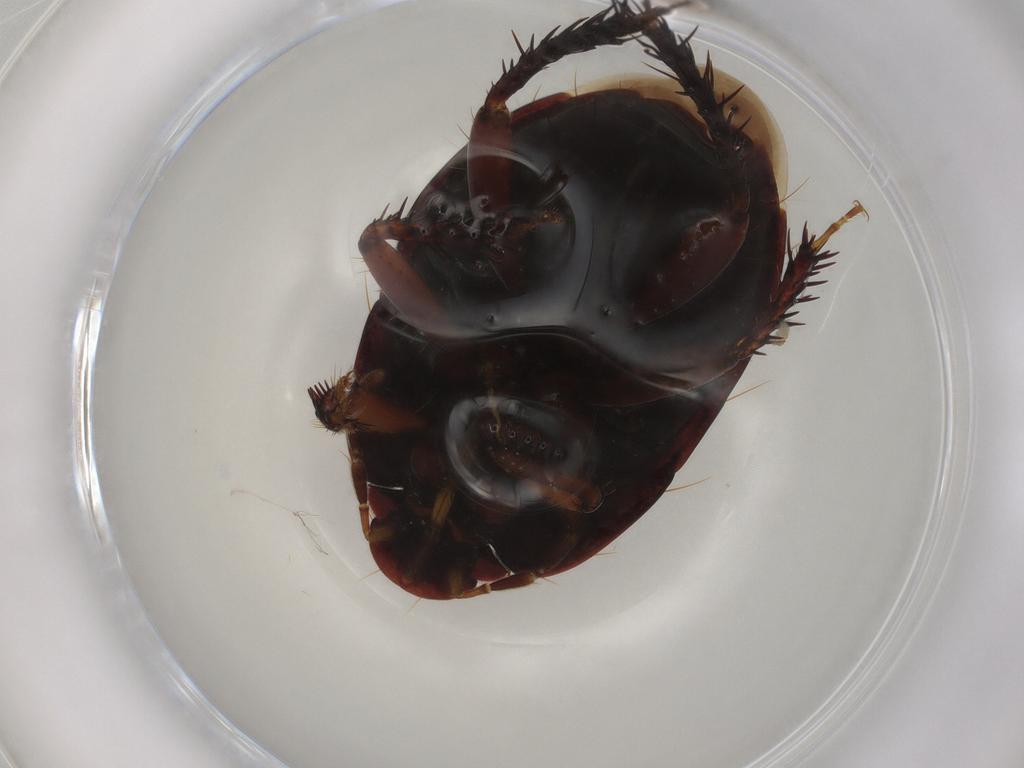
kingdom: Animalia
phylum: Arthropoda
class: Insecta
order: Hemiptera
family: Cydnidae
